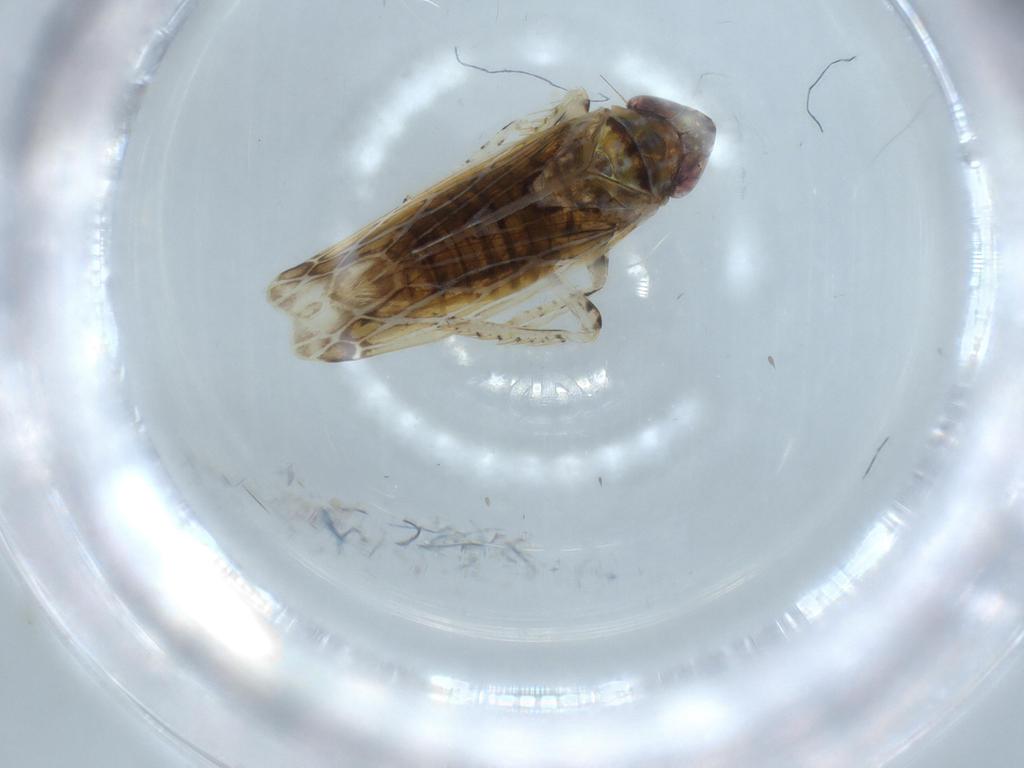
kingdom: Animalia
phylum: Arthropoda
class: Insecta
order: Hemiptera
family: Cicadellidae
